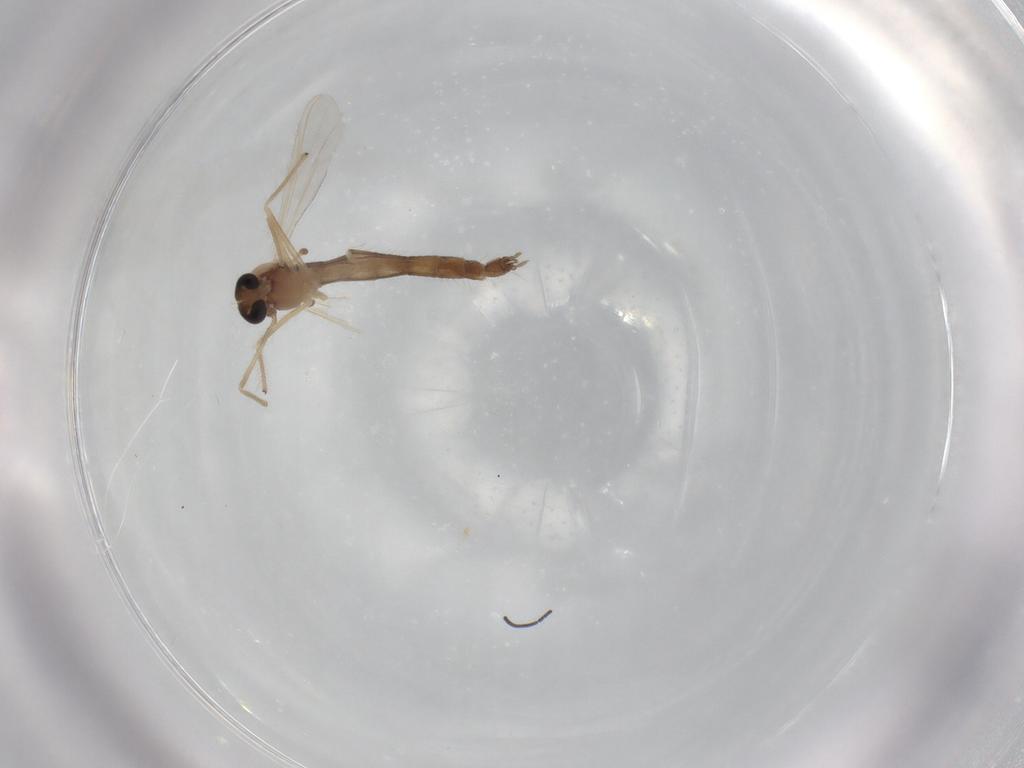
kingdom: Animalia
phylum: Arthropoda
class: Insecta
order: Diptera
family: Chironomidae
